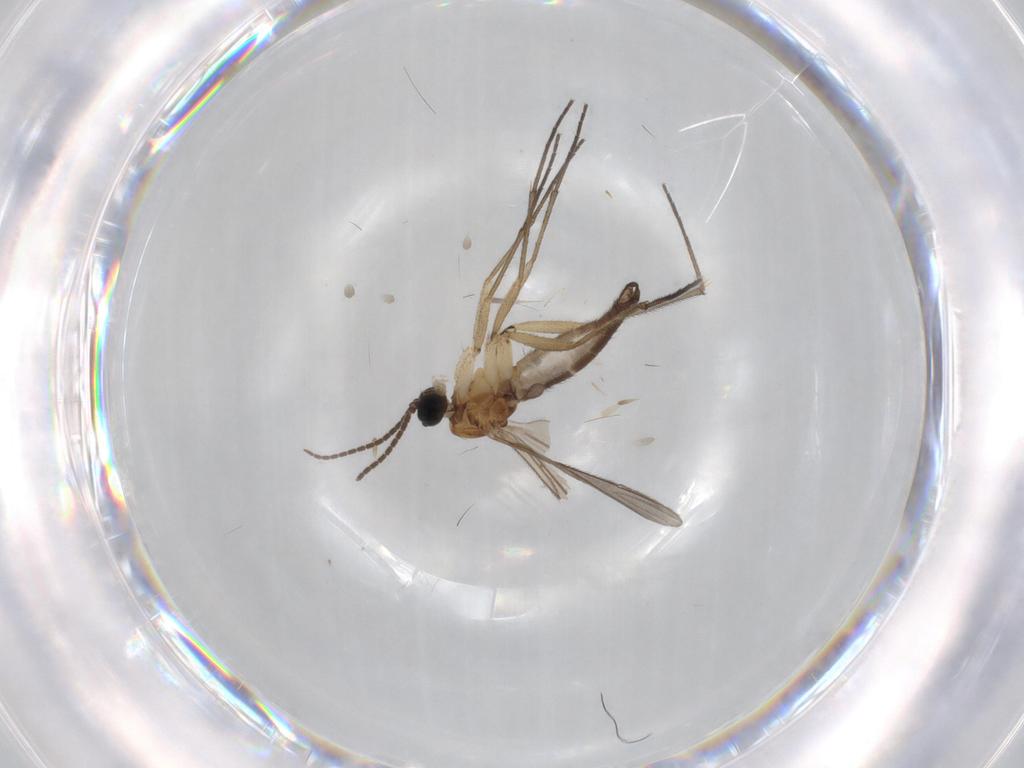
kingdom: Animalia
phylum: Arthropoda
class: Insecta
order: Diptera
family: Cecidomyiidae
